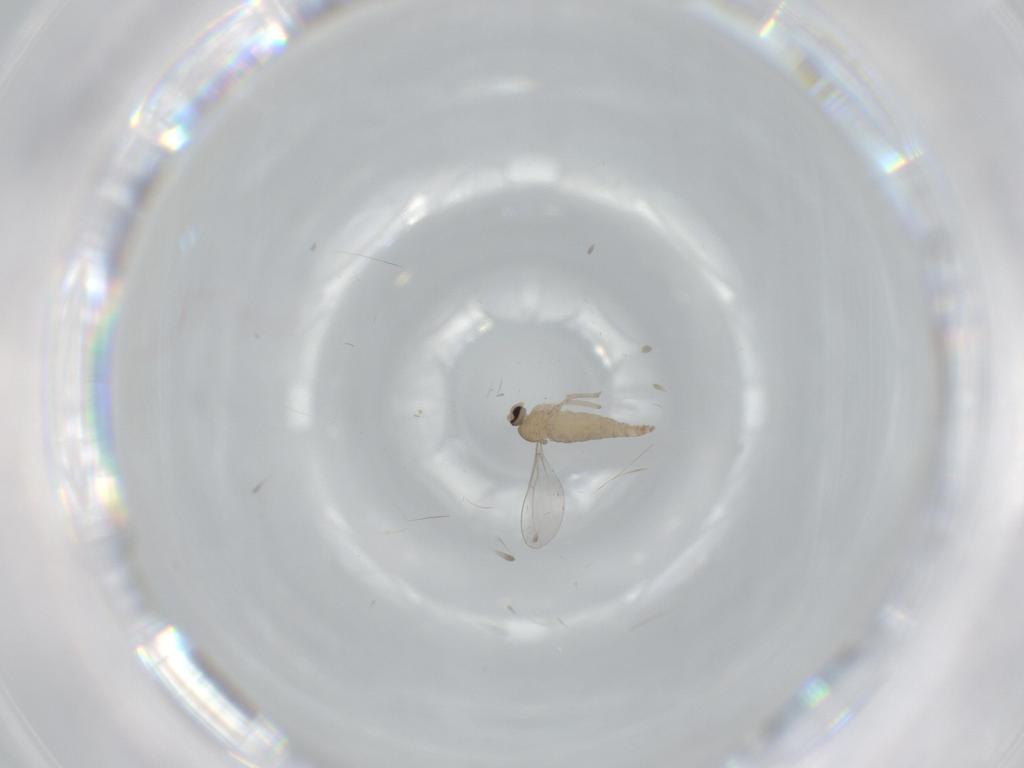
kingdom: Animalia
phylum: Arthropoda
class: Insecta
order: Diptera
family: Cecidomyiidae
